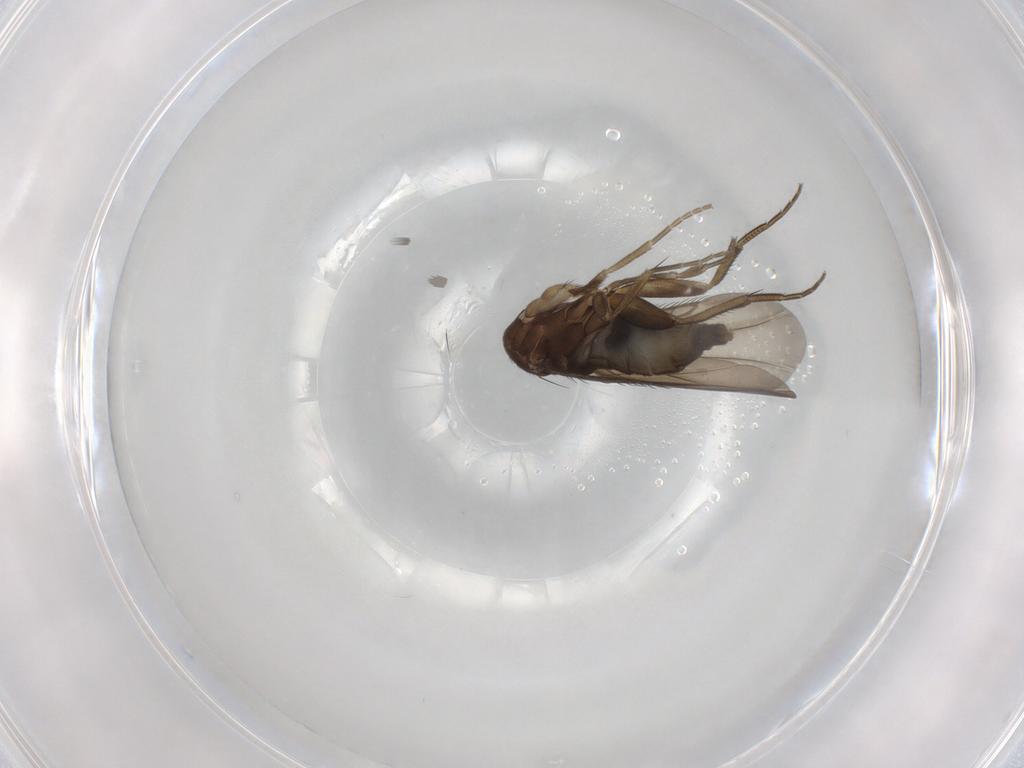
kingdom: Animalia
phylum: Arthropoda
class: Insecta
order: Diptera
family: Phoridae
